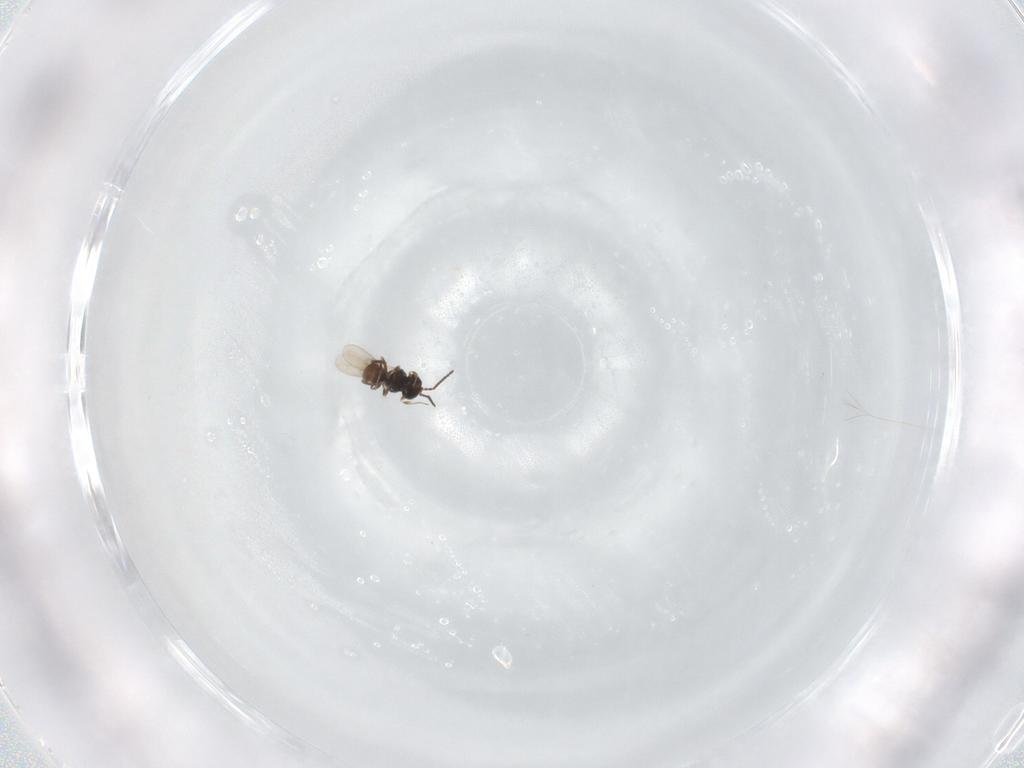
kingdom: Animalia
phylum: Arthropoda
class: Insecta
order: Hymenoptera
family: Scelionidae
